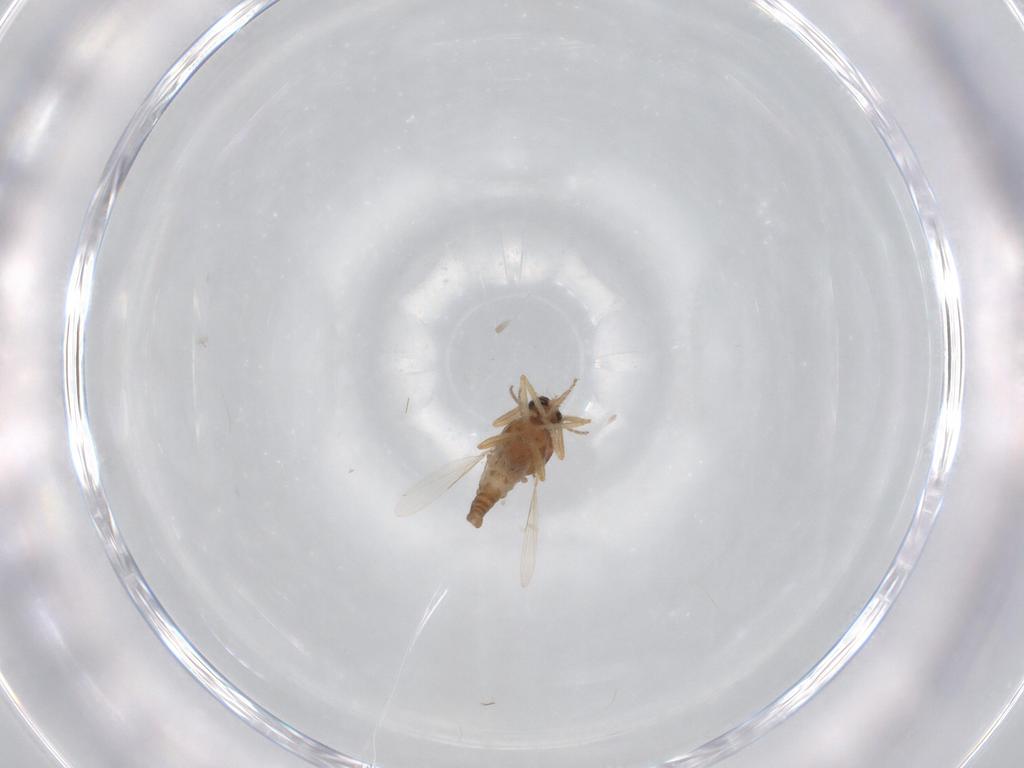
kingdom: Animalia
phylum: Arthropoda
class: Insecta
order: Diptera
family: Ceratopogonidae
